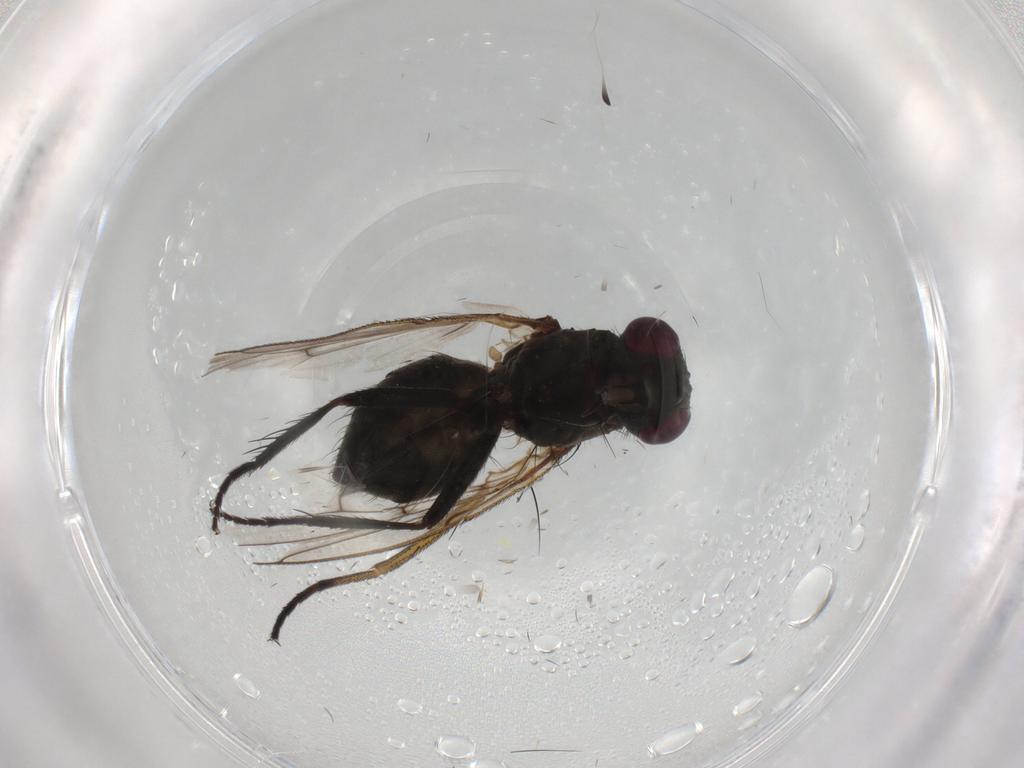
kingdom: Animalia
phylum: Arthropoda
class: Insecta
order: Diptera
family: Muscidae
